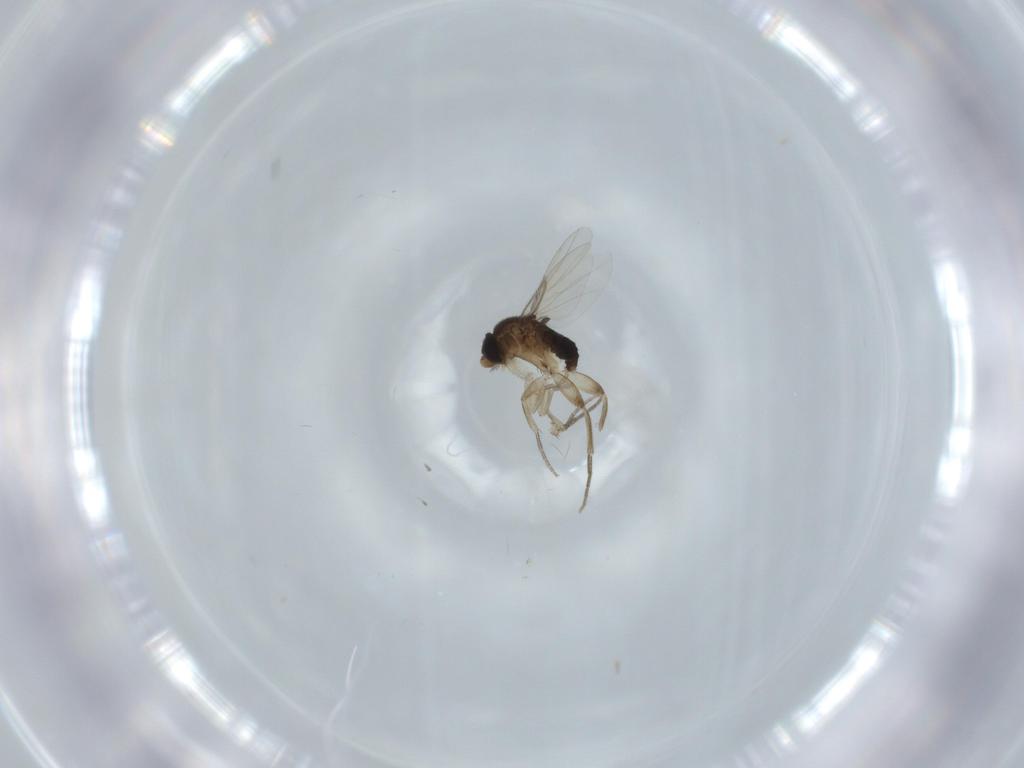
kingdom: Animalia
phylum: Arthropoda
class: Insecta
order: Diptera
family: Phoridae
